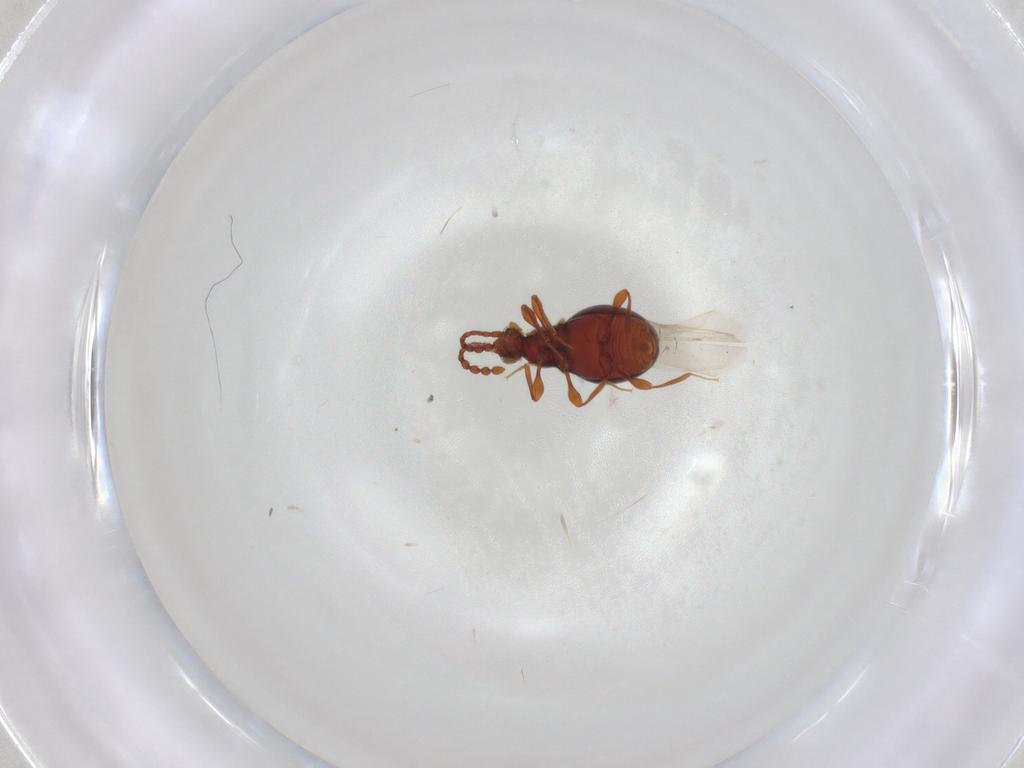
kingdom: Animalia
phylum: Arthropoda
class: Insecta
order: Coleoptera
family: Staphylinidae
